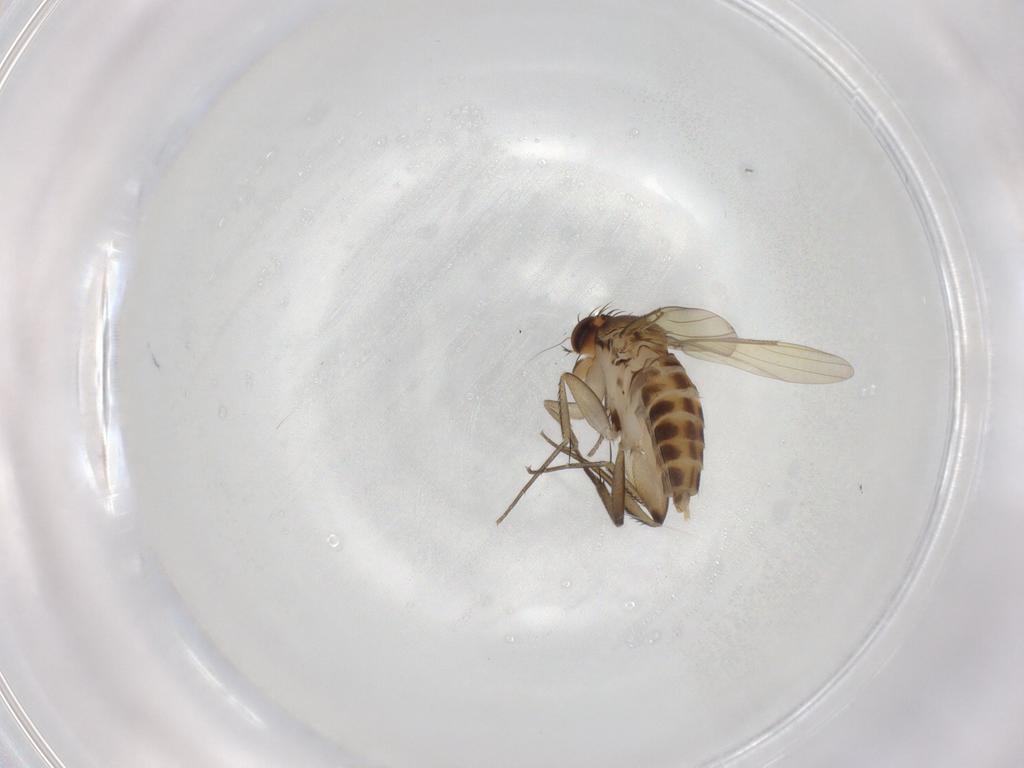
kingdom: Animalia
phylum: Arthropoda
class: Insecta
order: Diptera
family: Phoridae
